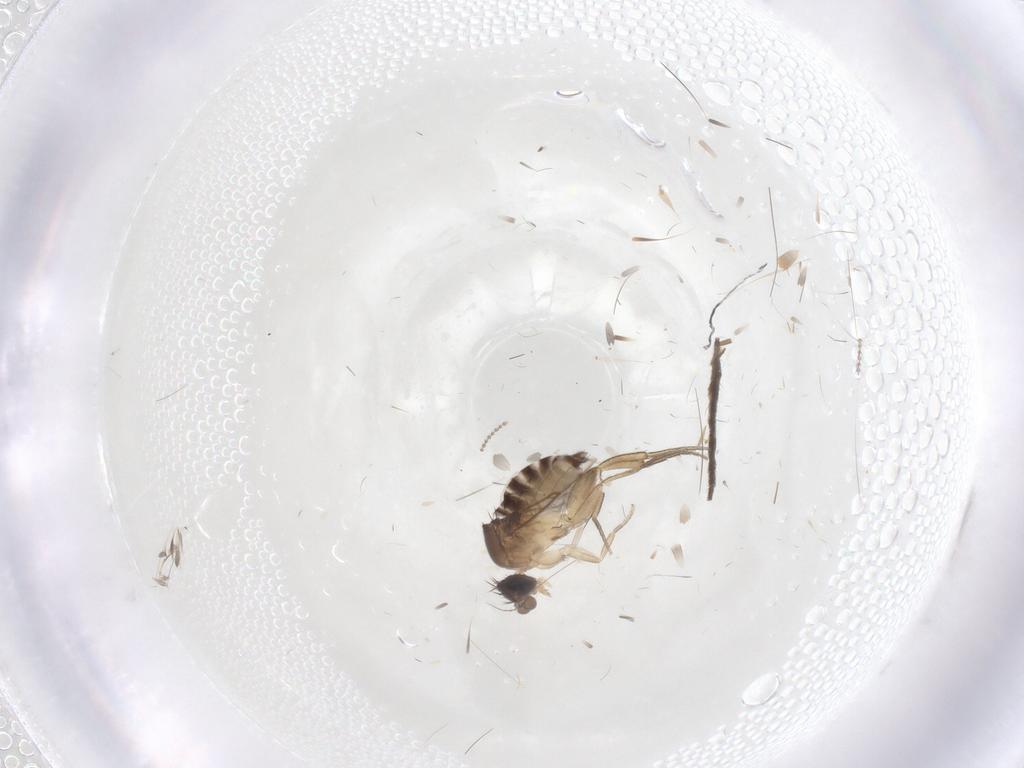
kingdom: Animalia
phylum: Arthropoda
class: Insecta
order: Diptera
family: Phoridae
